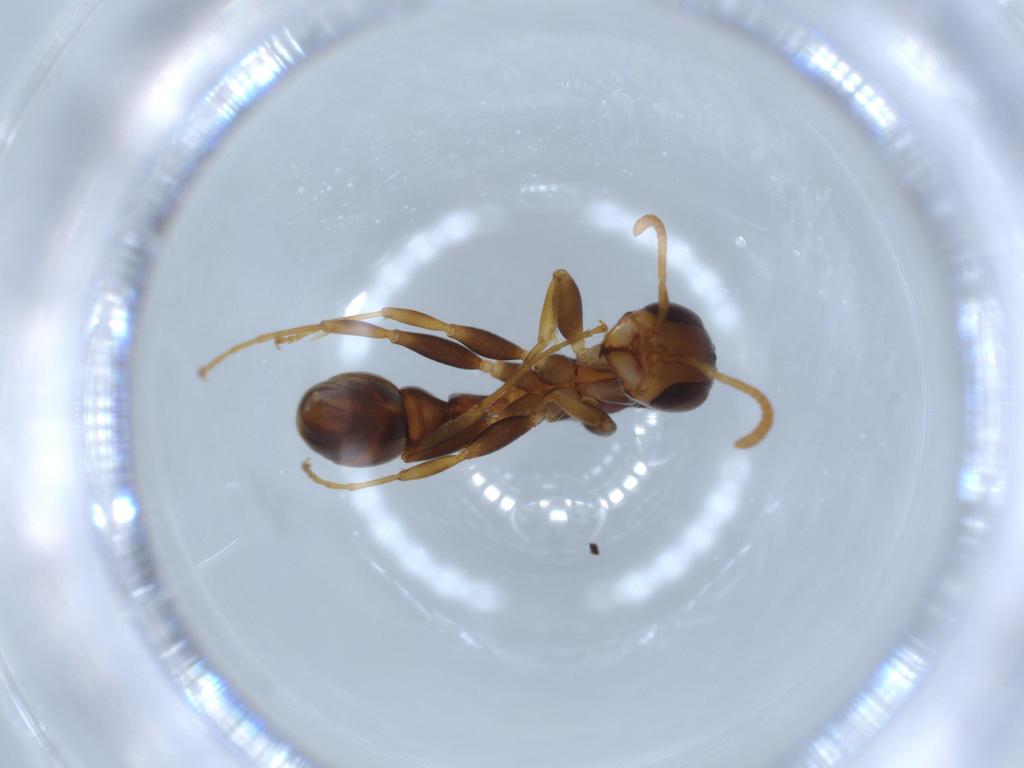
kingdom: Animalia
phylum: Arthropoda
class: Insecta
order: Hymenoptera
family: Formicidae
